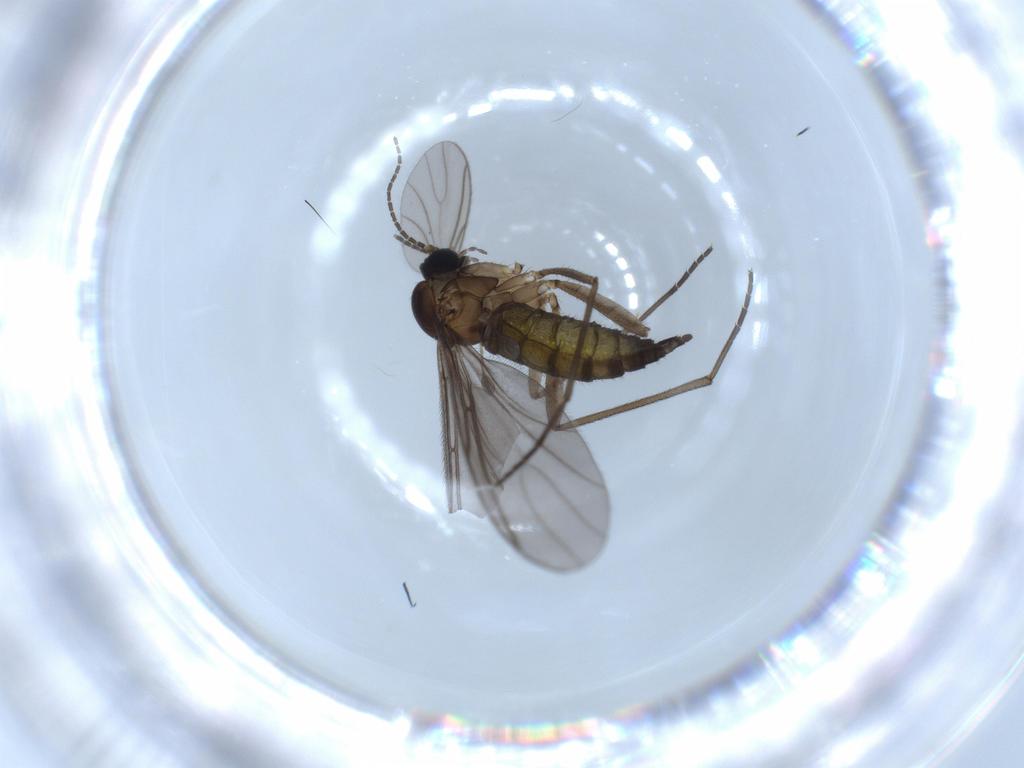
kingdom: Animalia
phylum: Arthropoda
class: Insecta
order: Diptera
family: Sciaridae
